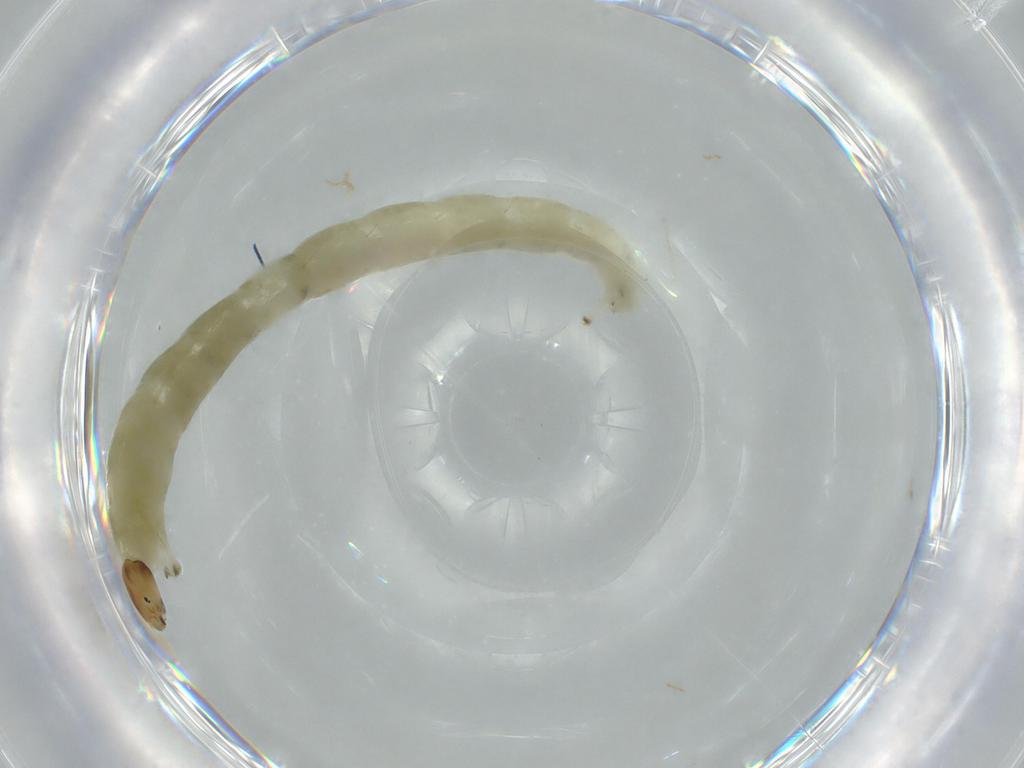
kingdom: Animalia
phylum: Arthropoda
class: Insecta
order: Diptera
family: Chironomidae
